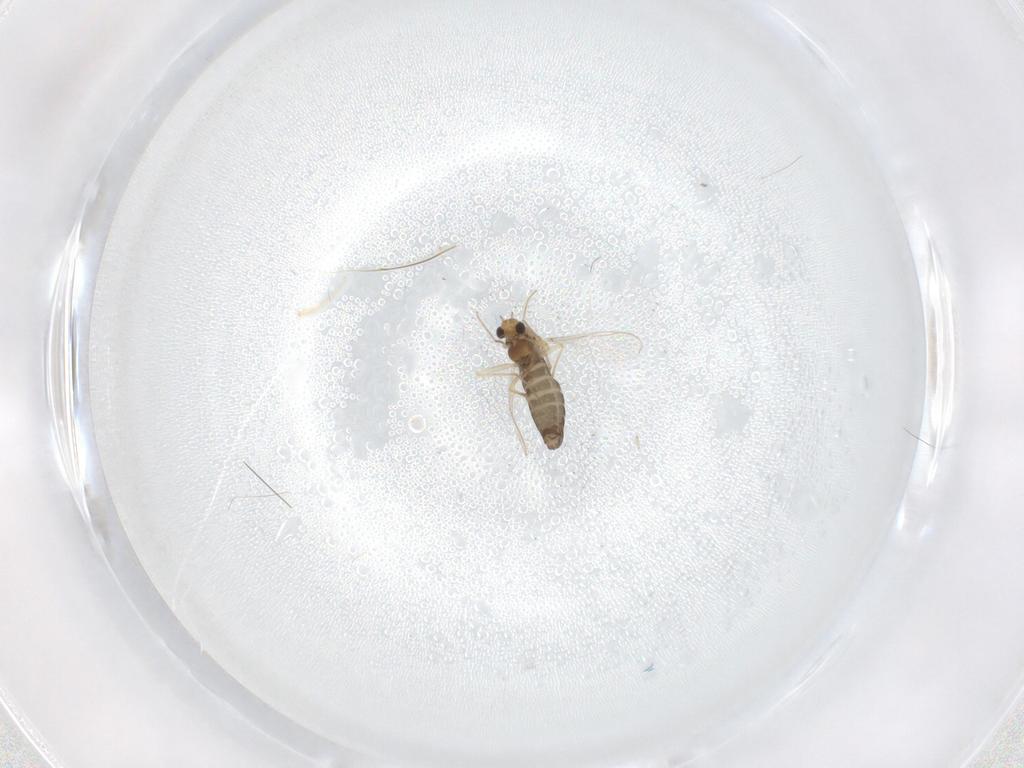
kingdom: Animalia
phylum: Arthropoda
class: Insecta
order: Diptera
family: Chironomidae
